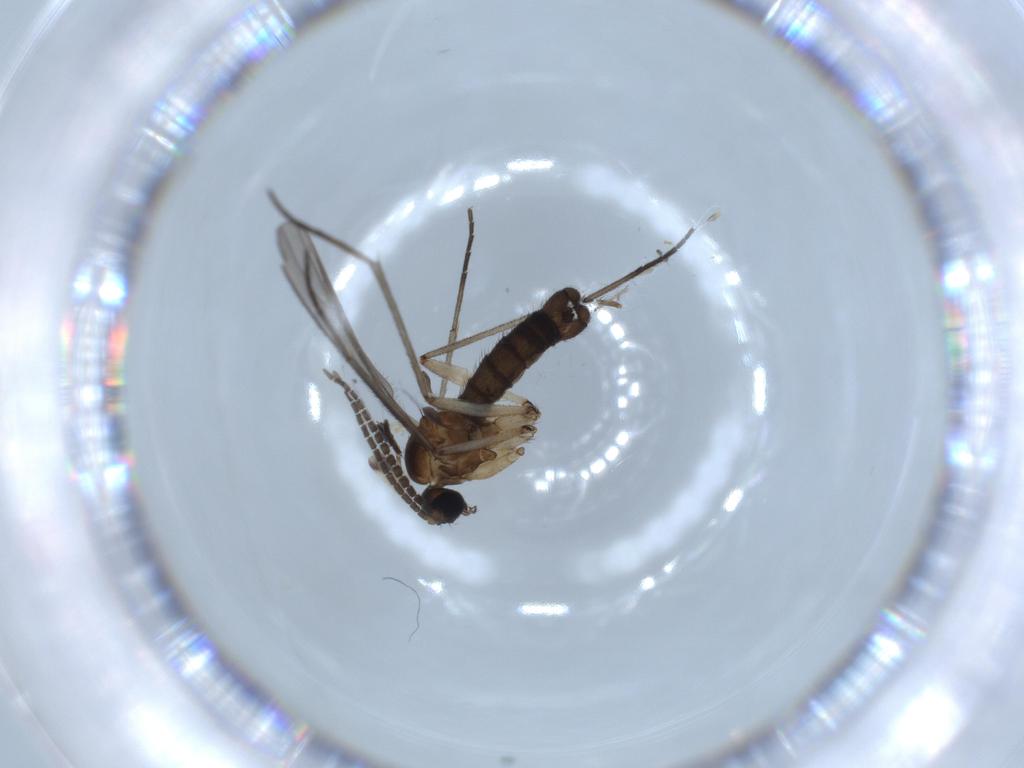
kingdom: Animalia
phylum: Arthropoda
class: Insecta
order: Diptera
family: Sciaridae
